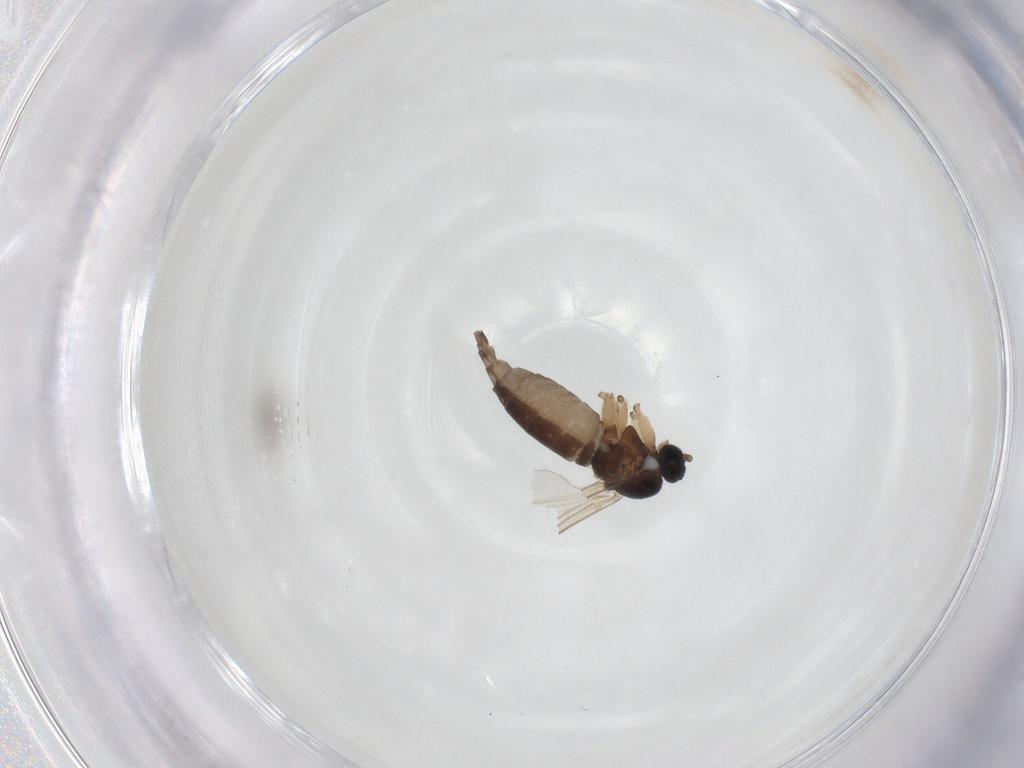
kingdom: Animalia
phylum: Arthropoda
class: Insecta
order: Diptera
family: Sciaridae
